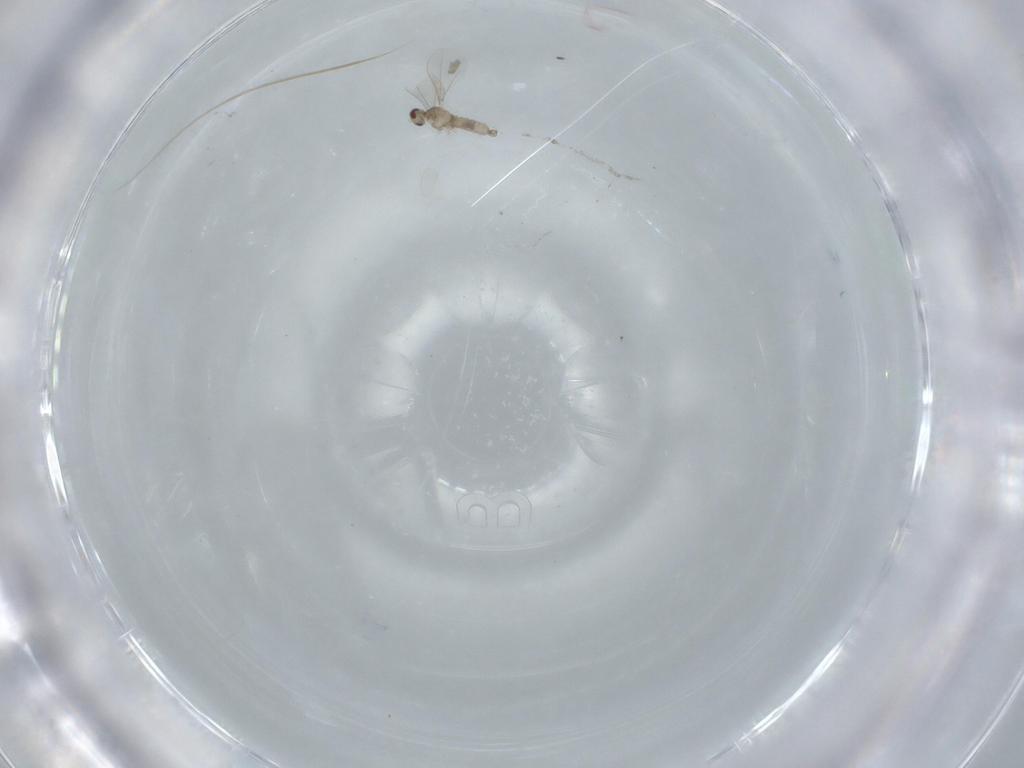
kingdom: Animalia
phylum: Arthropoda
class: Insecta
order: Diptera
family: Cecidomyiidae
